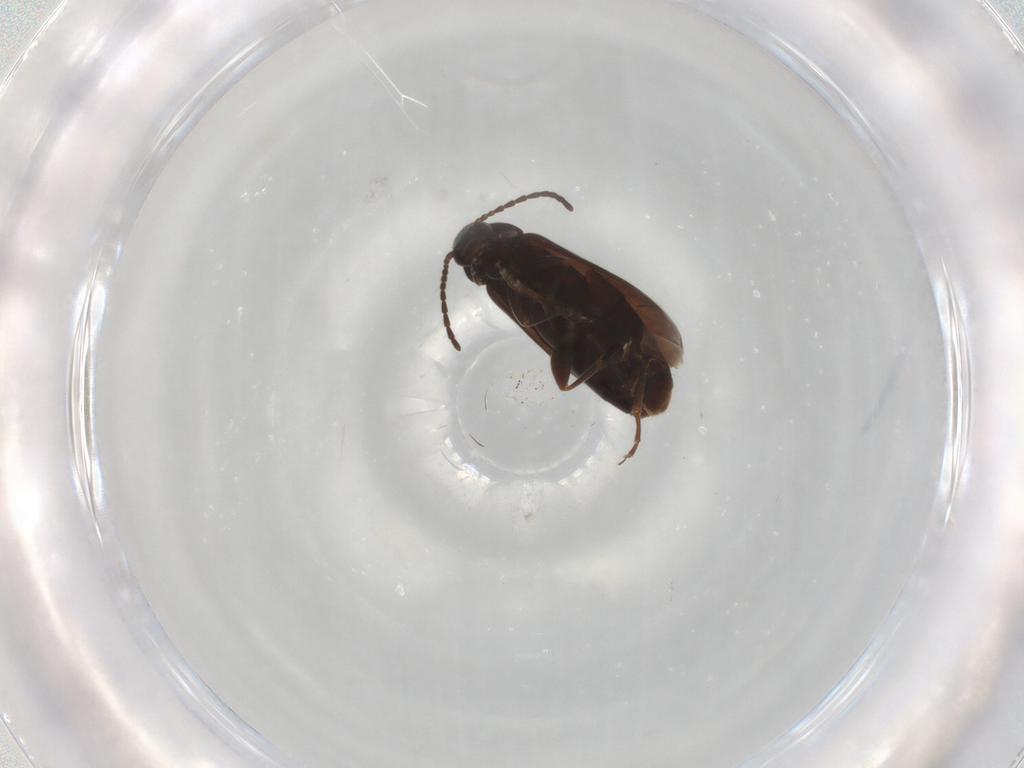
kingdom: Animalia
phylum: Arthropoda
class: Insecta
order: Coleoptera
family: Scraptiidae
